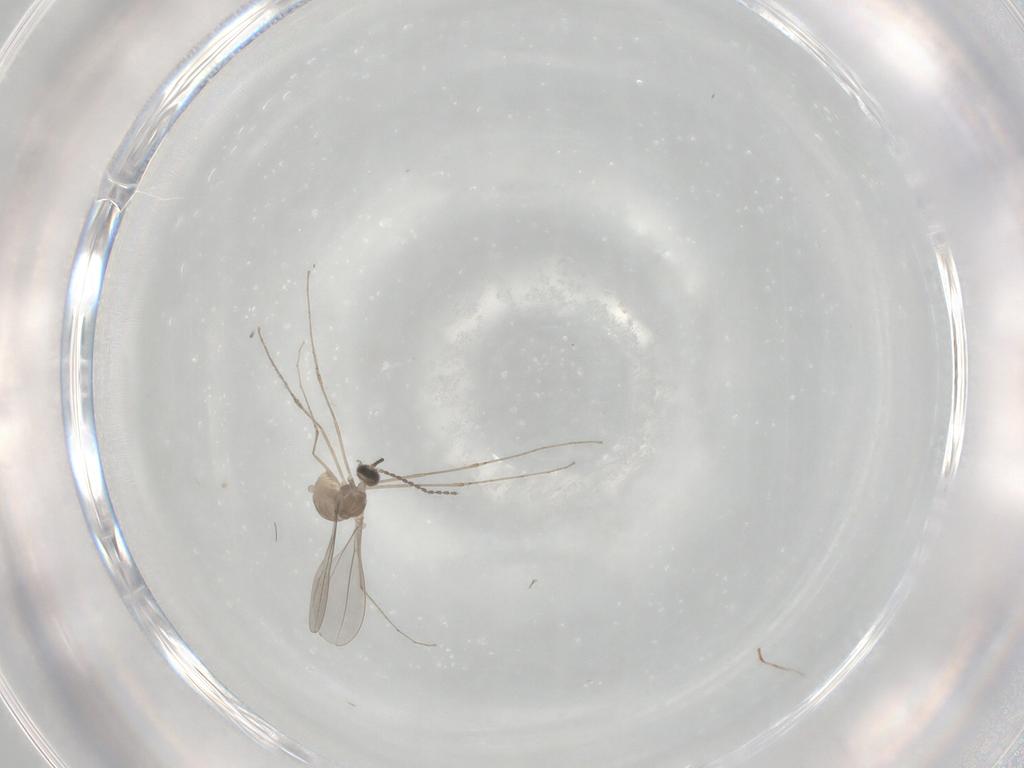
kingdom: Animalia
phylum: Arthropoda
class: Insecta
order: Diptera
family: Cecidomyiidae
